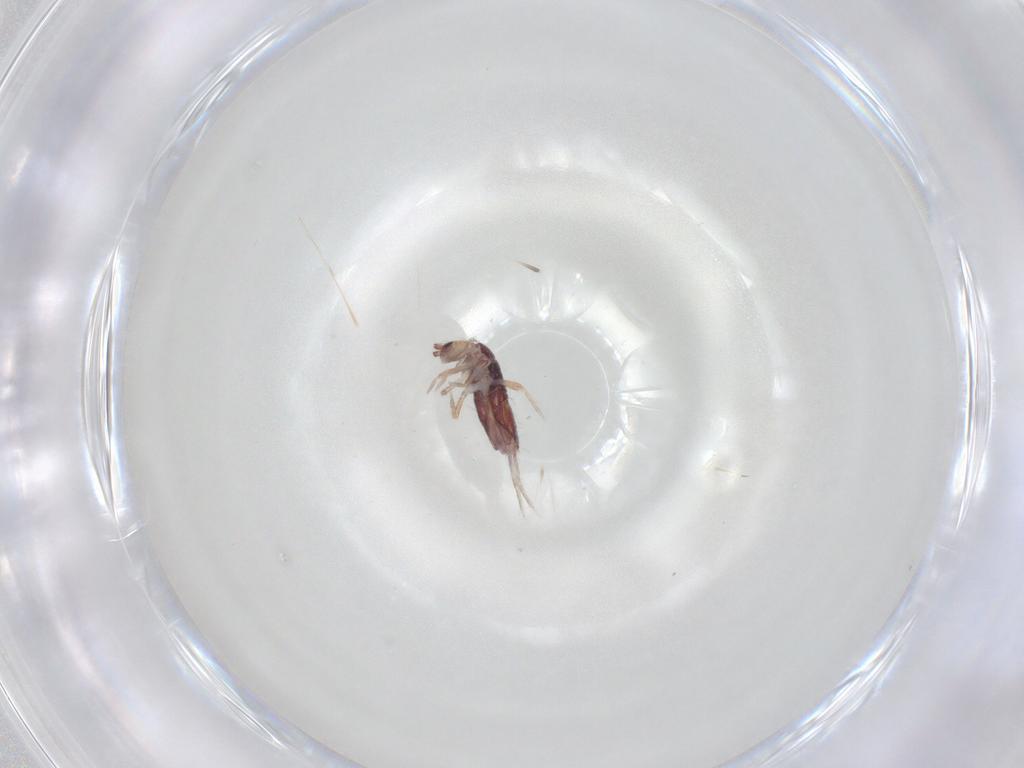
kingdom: Animalia
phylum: Arthropoda
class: Collembola
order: Entomobryomorpha
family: Entomobryidae
